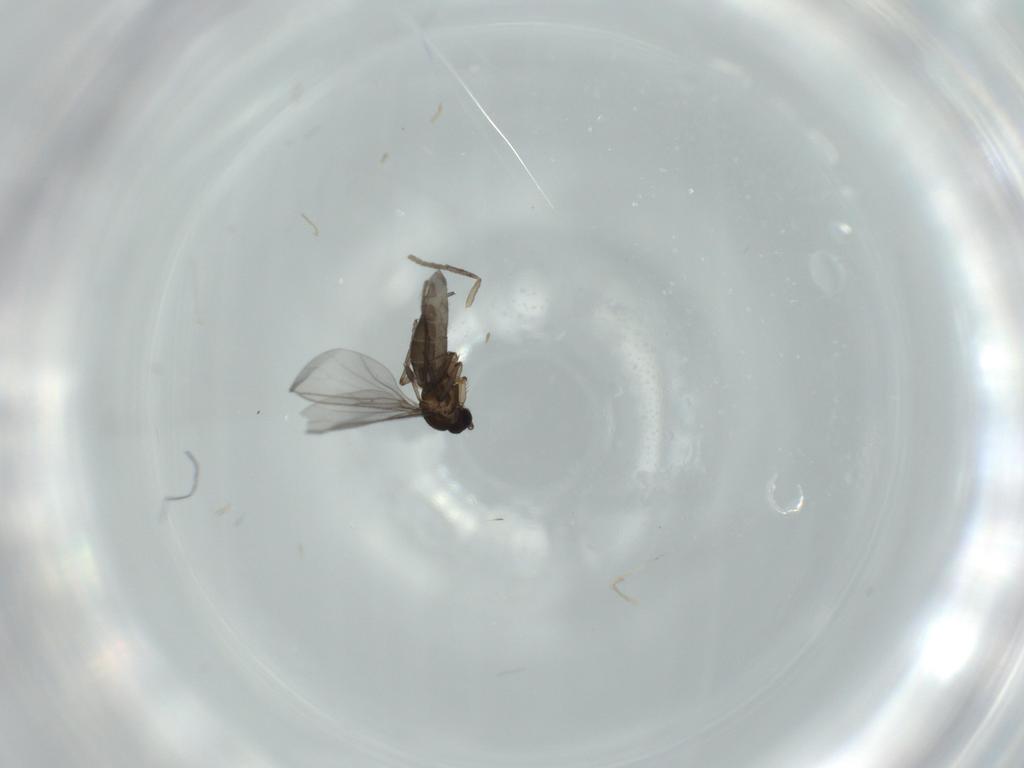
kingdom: Animalia
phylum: Arthropoda
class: Insecta
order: Diptera
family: Psychodidae
